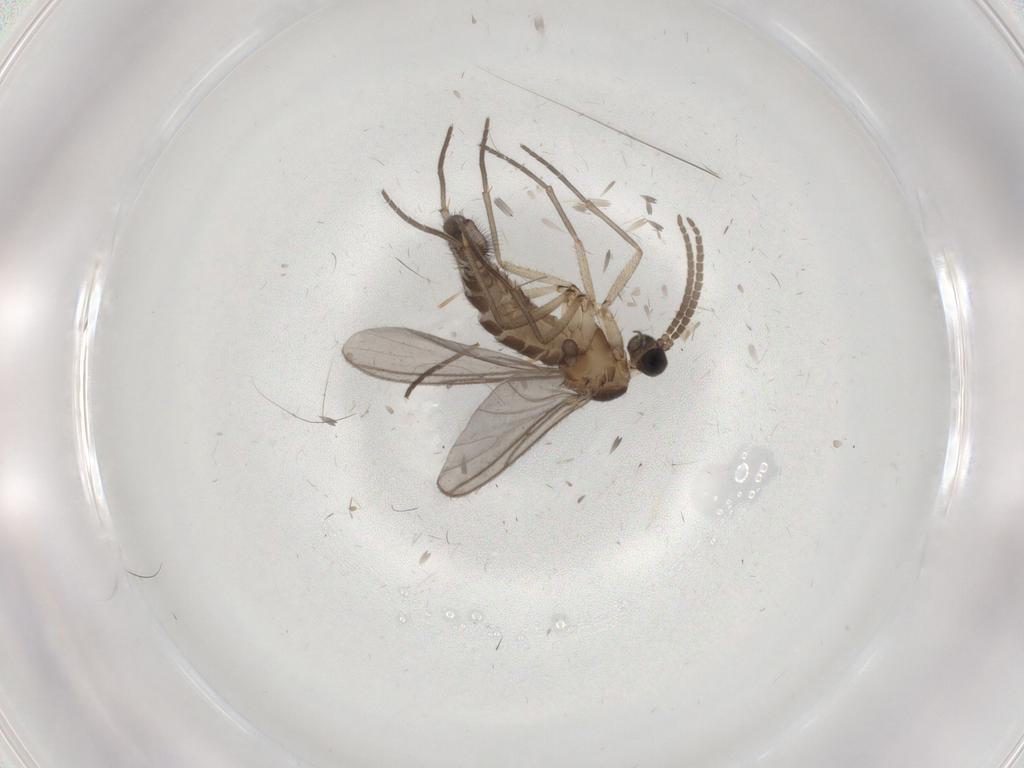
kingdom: Animalia
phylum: Arthropoda
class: Insecta
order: Diptera
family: Sciaridae
